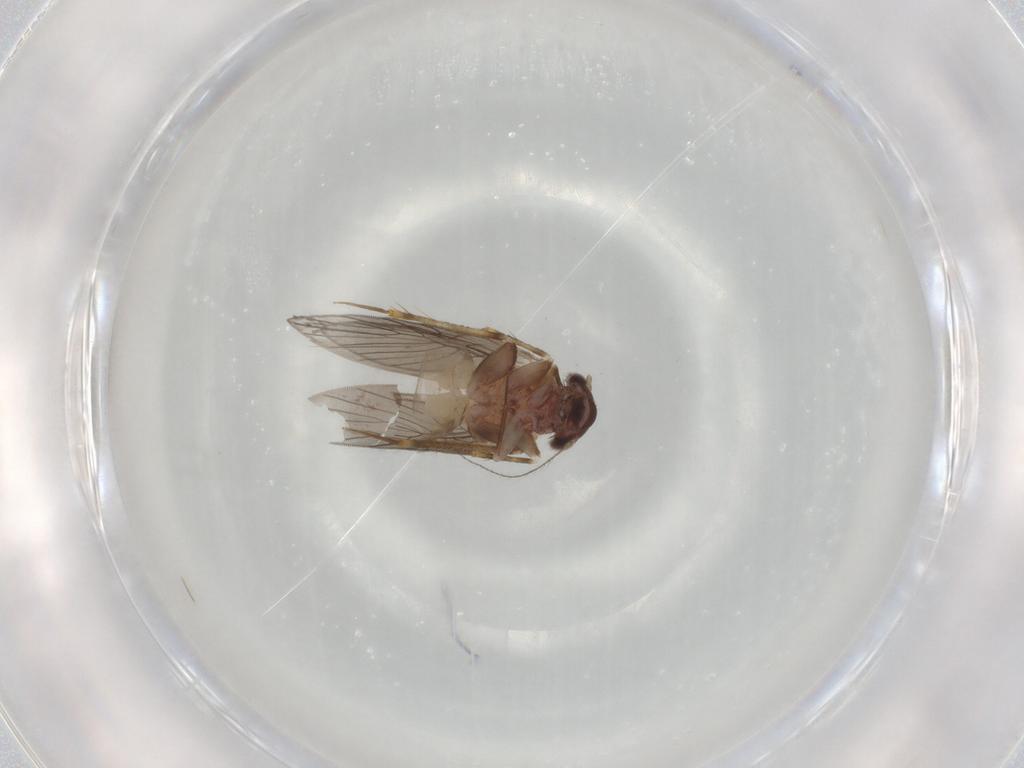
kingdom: Animalia
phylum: Arthropoda
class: Insecta
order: Psocodea
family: Lepidopsocidae
